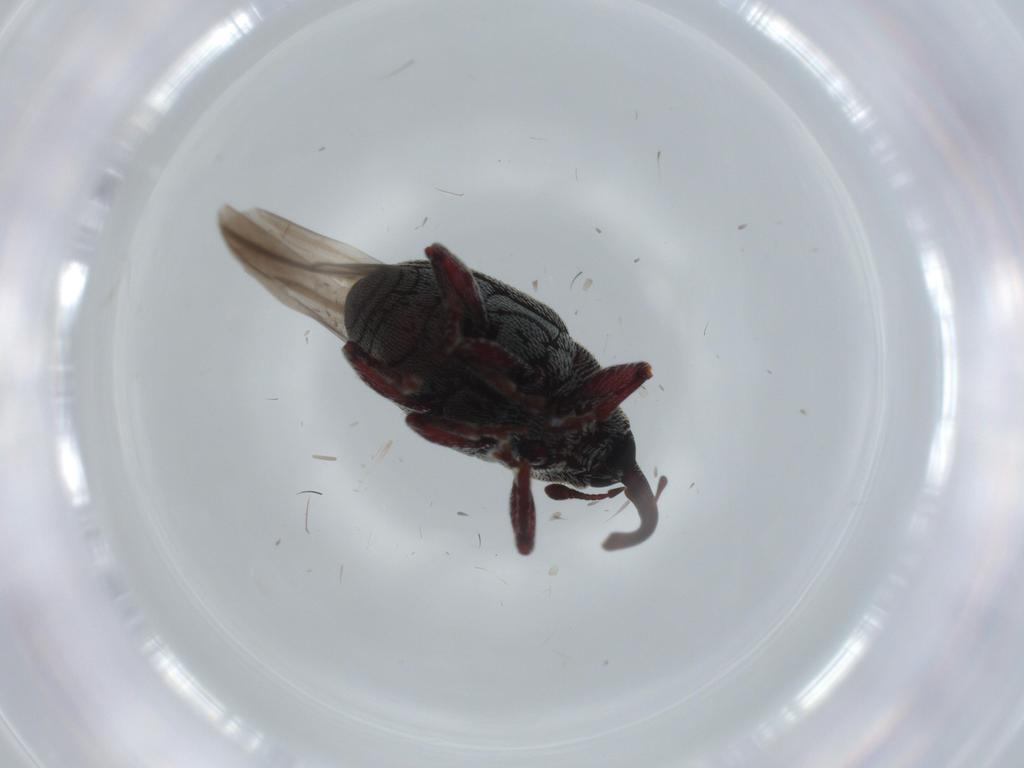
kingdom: Animalia
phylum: Arthropoda
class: Insecta
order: Coleoptera
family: Curculionidae
